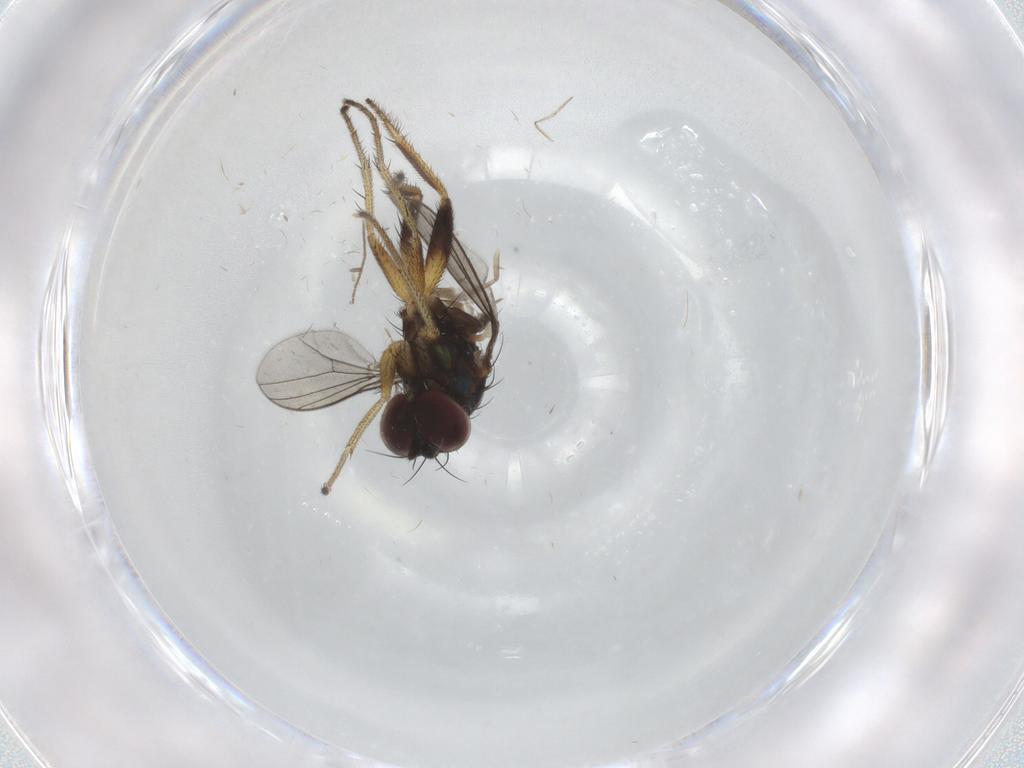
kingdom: Animalia
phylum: Arthropoda
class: Insecta
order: Diptera
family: Dolichopodidae
